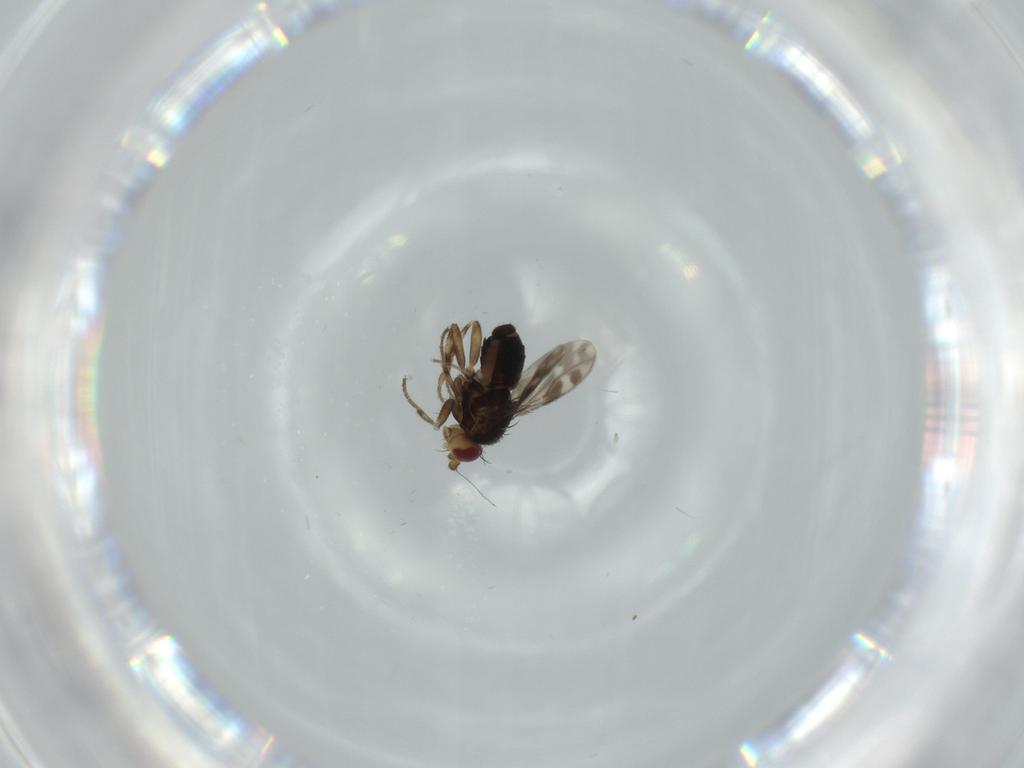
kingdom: Animalia
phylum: Arthropoda
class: Insecta
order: Diptera
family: Sphaeroceridae
